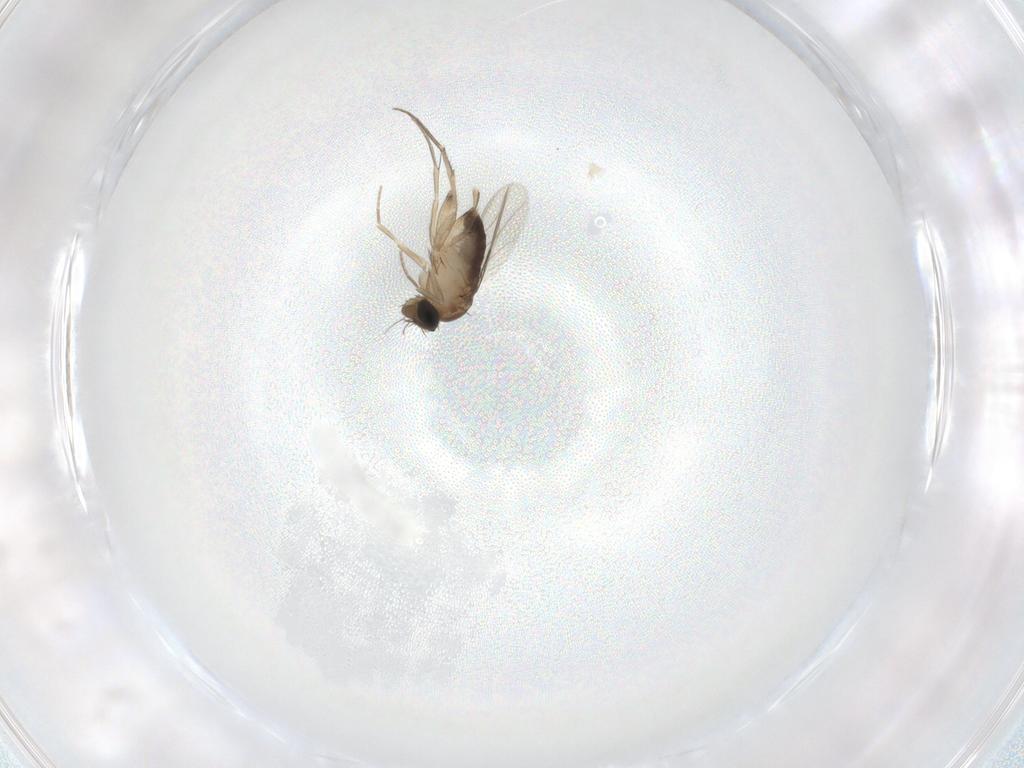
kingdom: Animalia
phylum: Arthropoda
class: Insecta
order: Diptera
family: Phoridae
